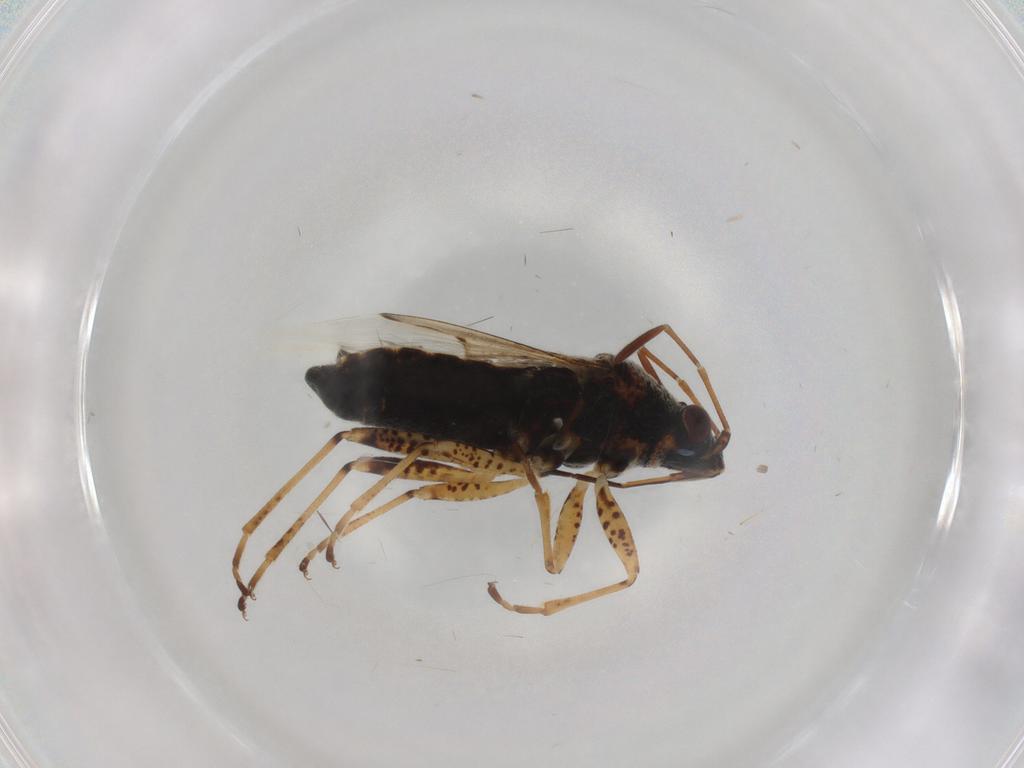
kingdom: Animalia
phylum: Arthropoda
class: Insecta
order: Hemiptera
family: Lygaeidae
